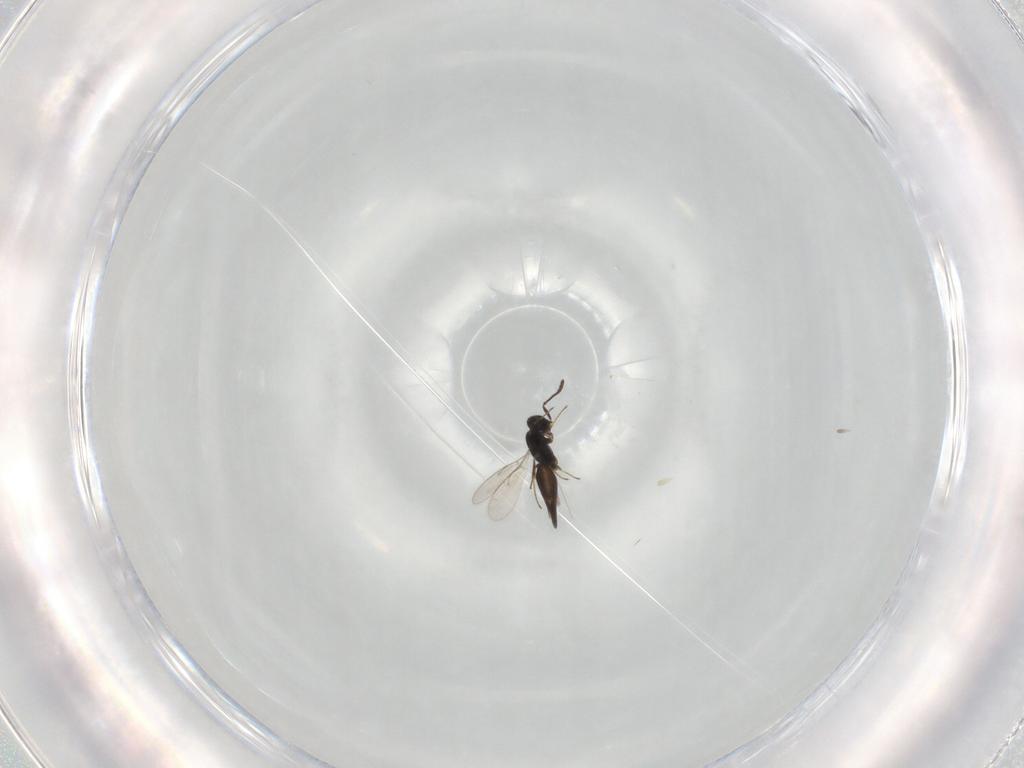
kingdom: Animalia
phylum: Arthropoda
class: Insecta
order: Hymenoptera
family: Scelionidae
